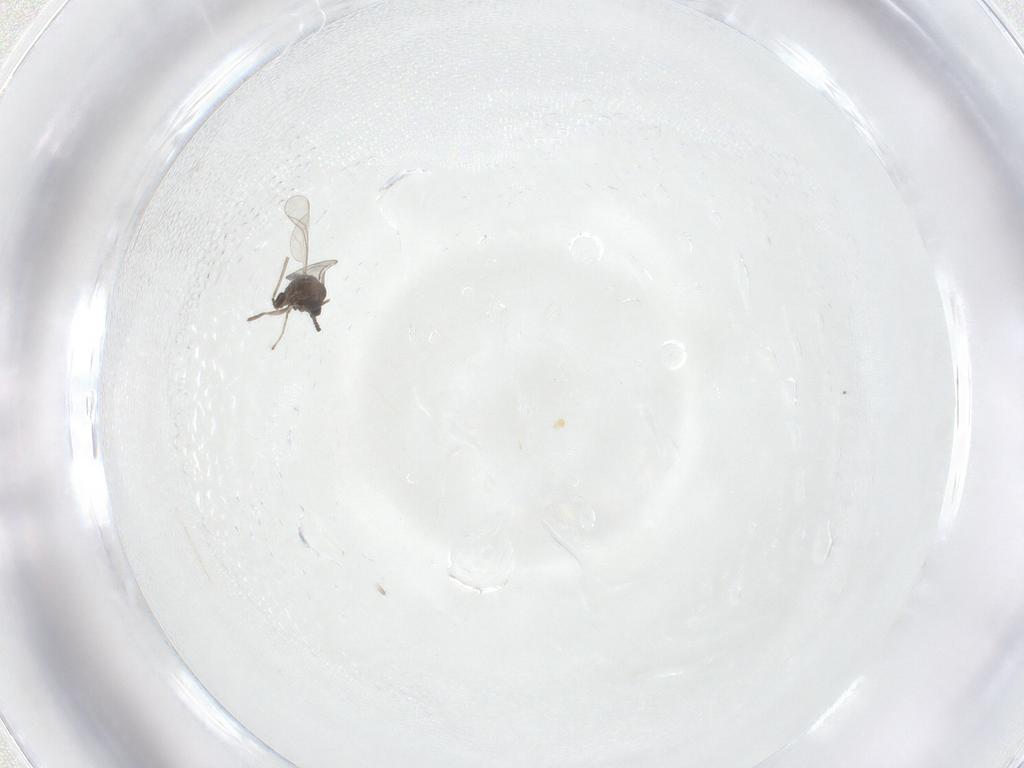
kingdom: Animalia
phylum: Arthropoda
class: Insecta
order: Diptera
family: Cecidomyiidae
